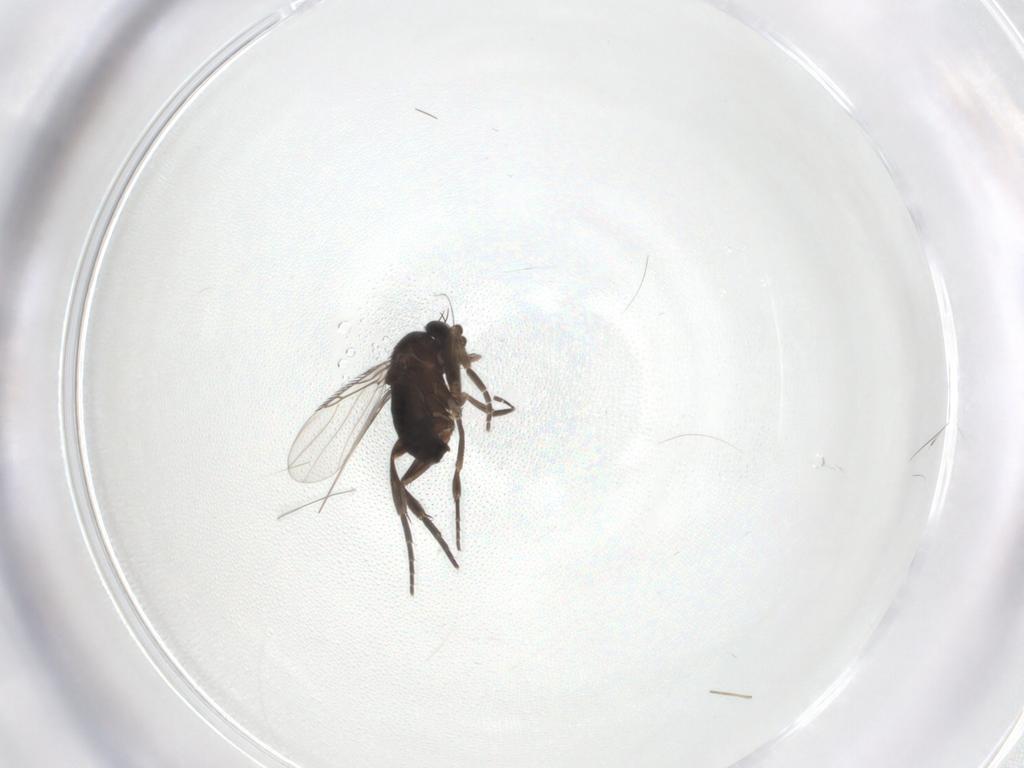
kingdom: Animalia
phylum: Arthropoda
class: Insecta
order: Diptera
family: Phoridae
